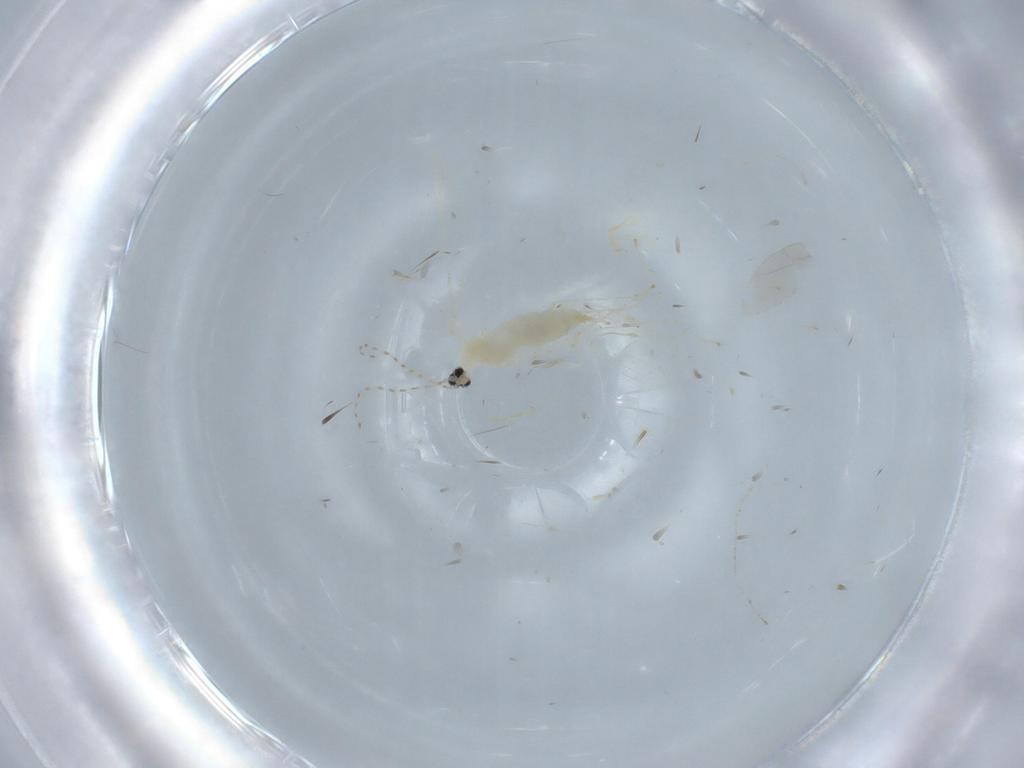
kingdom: Animalia
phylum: Arthropoda
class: Insecta
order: Diptera
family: Cecidomyiidae
